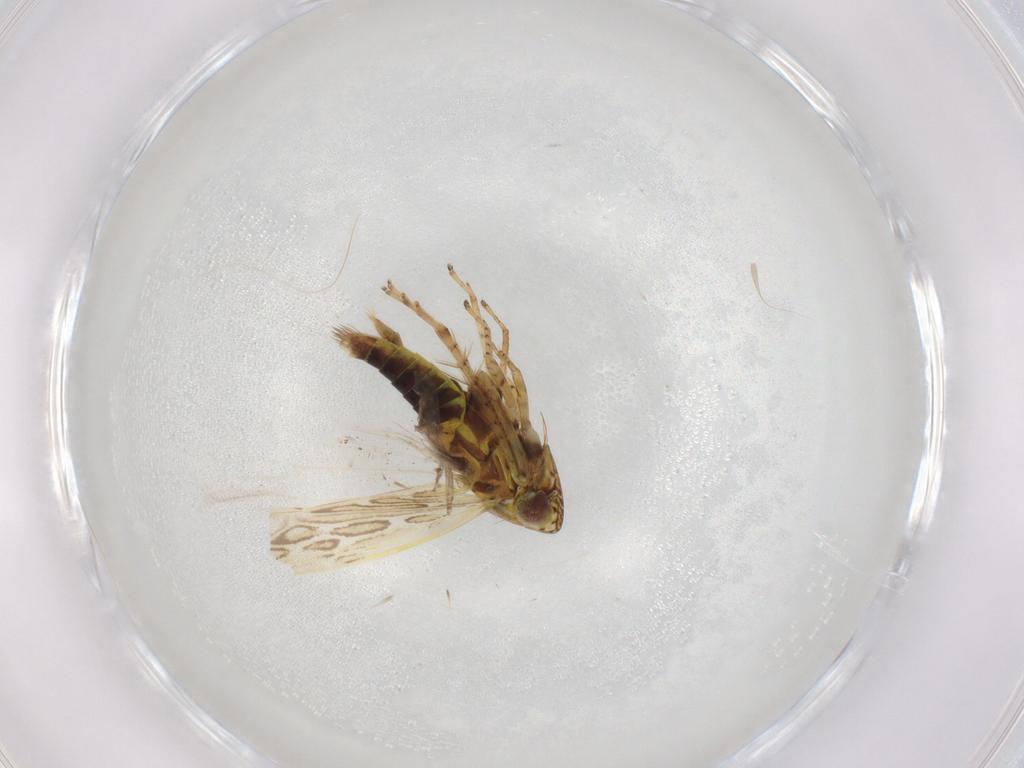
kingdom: Animalia
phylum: Arthropoda
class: Insecta
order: Hemiptera
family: Cicadellidae
